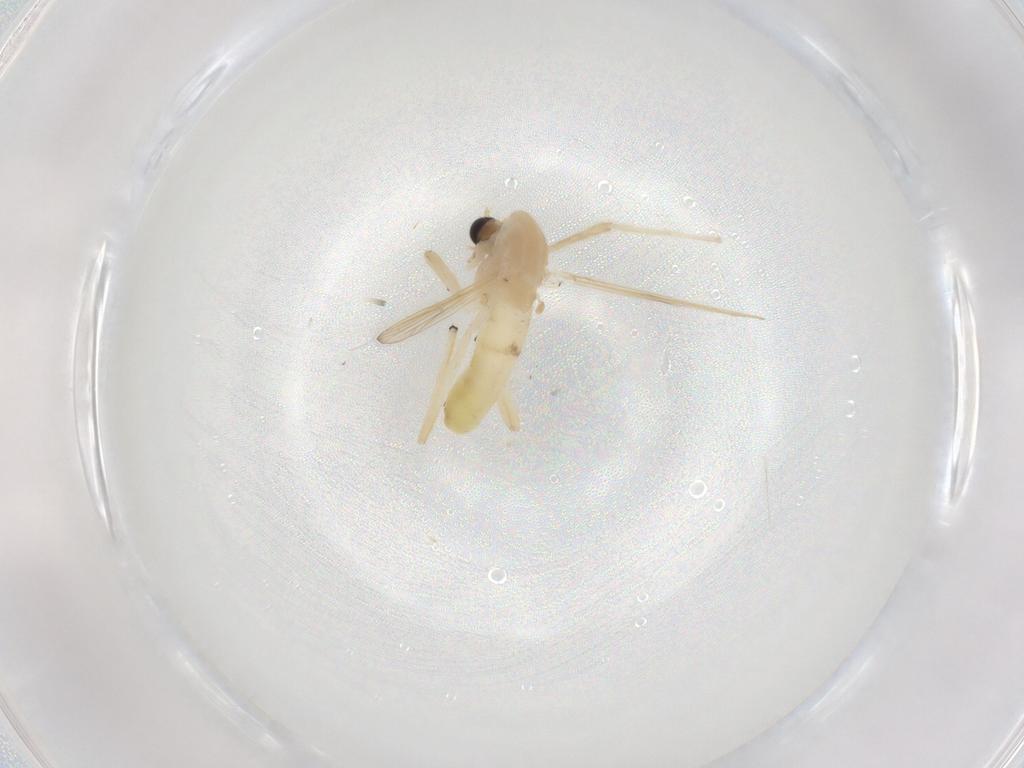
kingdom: Animalia
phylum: Arthropoda
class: Insecta
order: Diptera
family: Chironomidae
